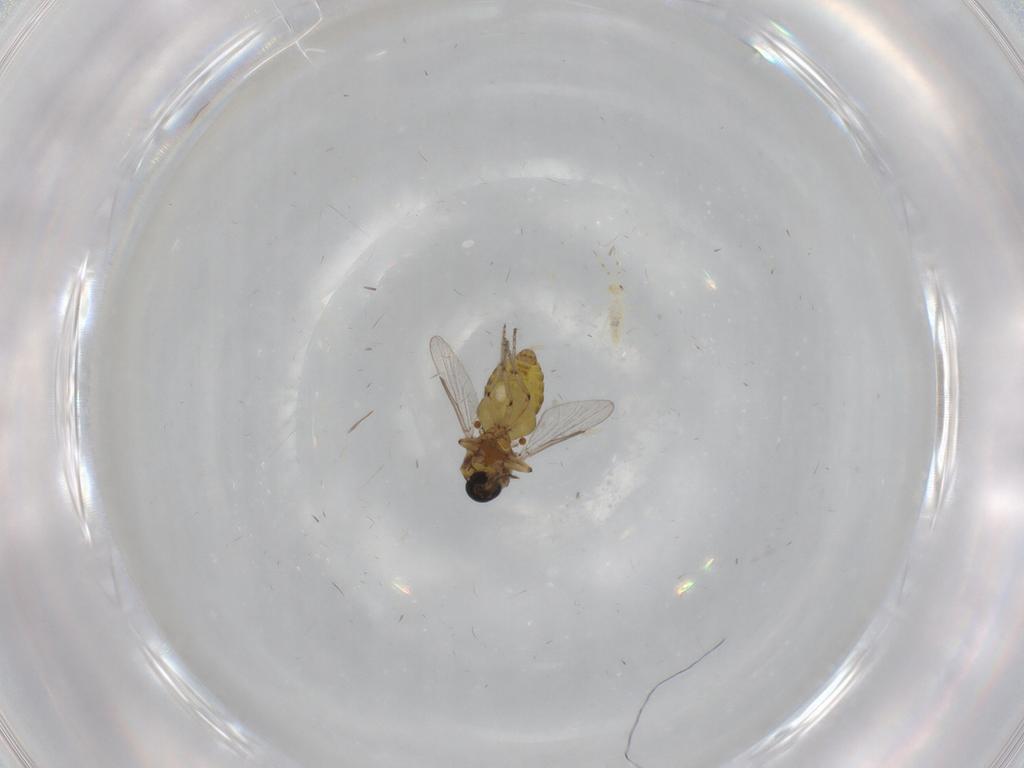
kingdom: Animalia
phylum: Arthropoda
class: Insecta
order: Diptera
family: Ceratopogonidae
